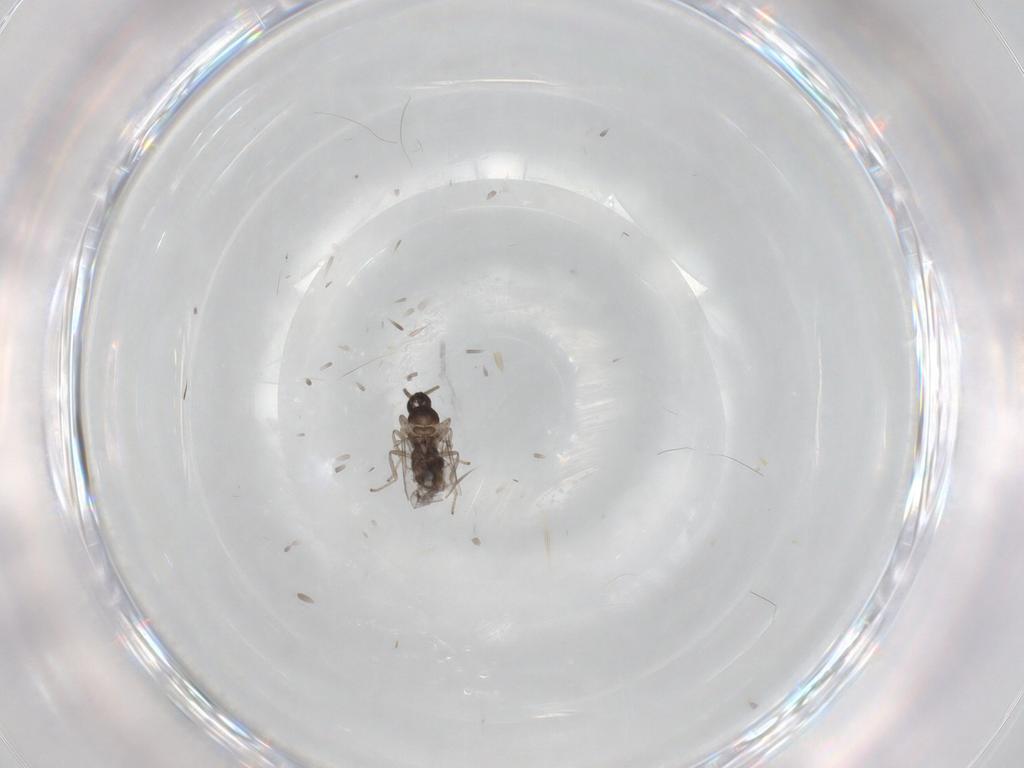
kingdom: Animalia
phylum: Arthropoda
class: Insecta
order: Diptera
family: Cecidomyiidae
